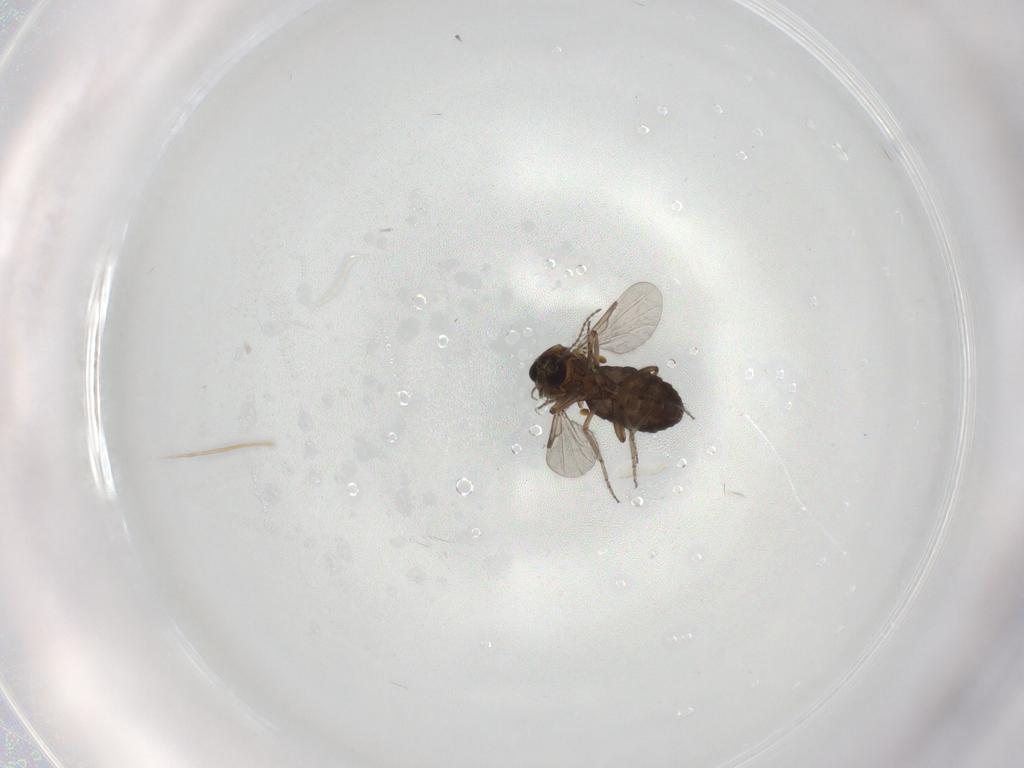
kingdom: Animalia
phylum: Arthropoda
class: Insecta
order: Diptera
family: Ceratopogonidae
